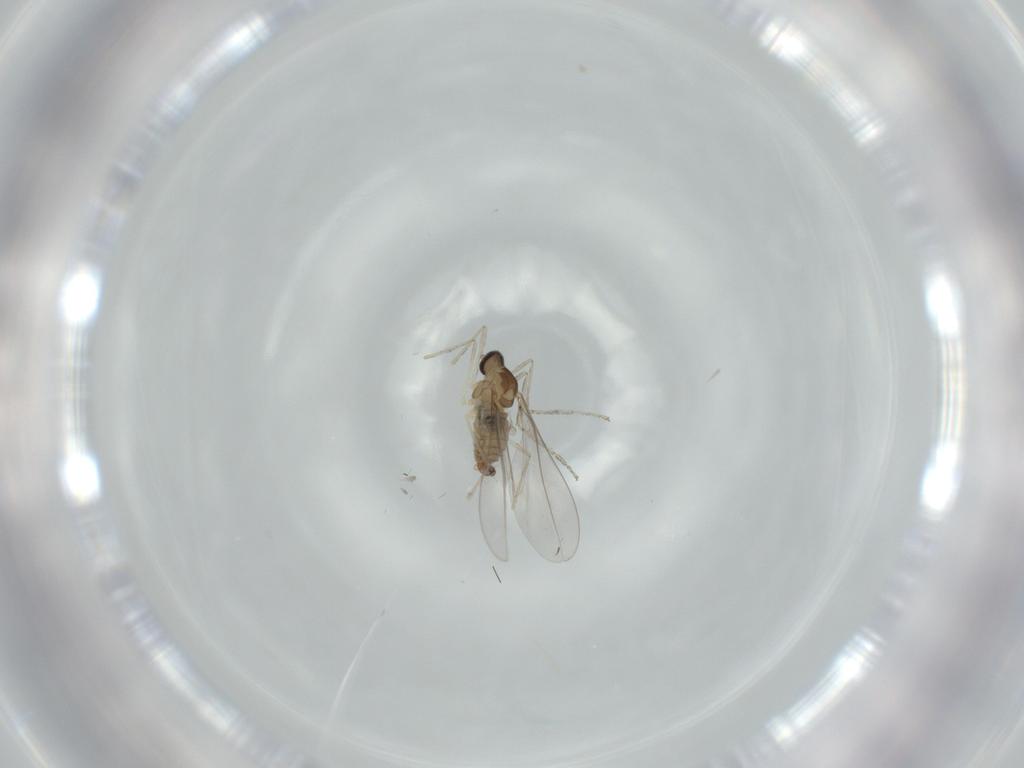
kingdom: Animalia
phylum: Arthropoda
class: Insecta
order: Diptera
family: Cecidomyiidae
